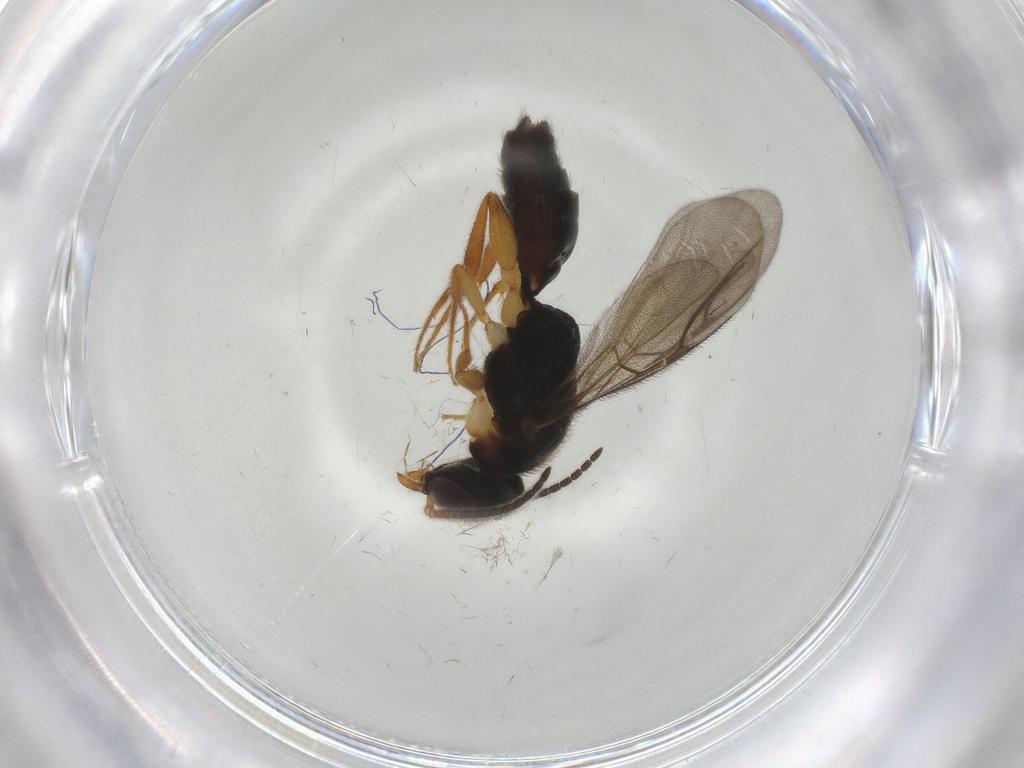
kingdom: Animalia
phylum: Arthropoda
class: Insecta
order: Hymenoptera
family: Bethylidae
